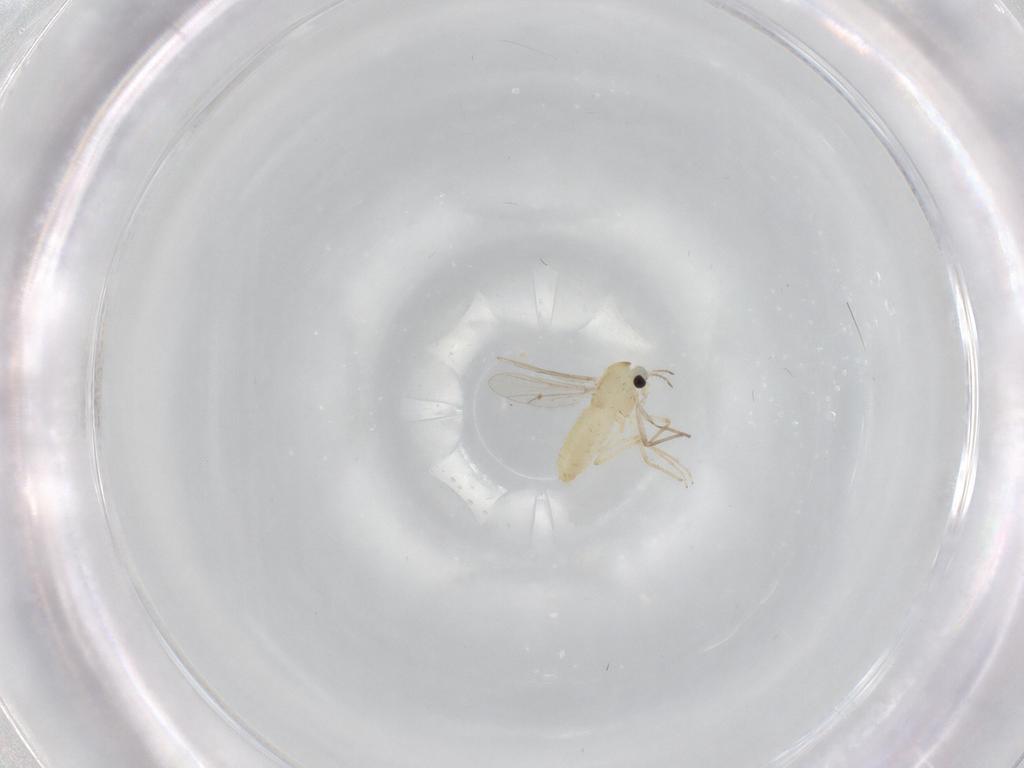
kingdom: Animalia
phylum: Arthropoda
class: Insecta
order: Diptera
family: Chironomidae
